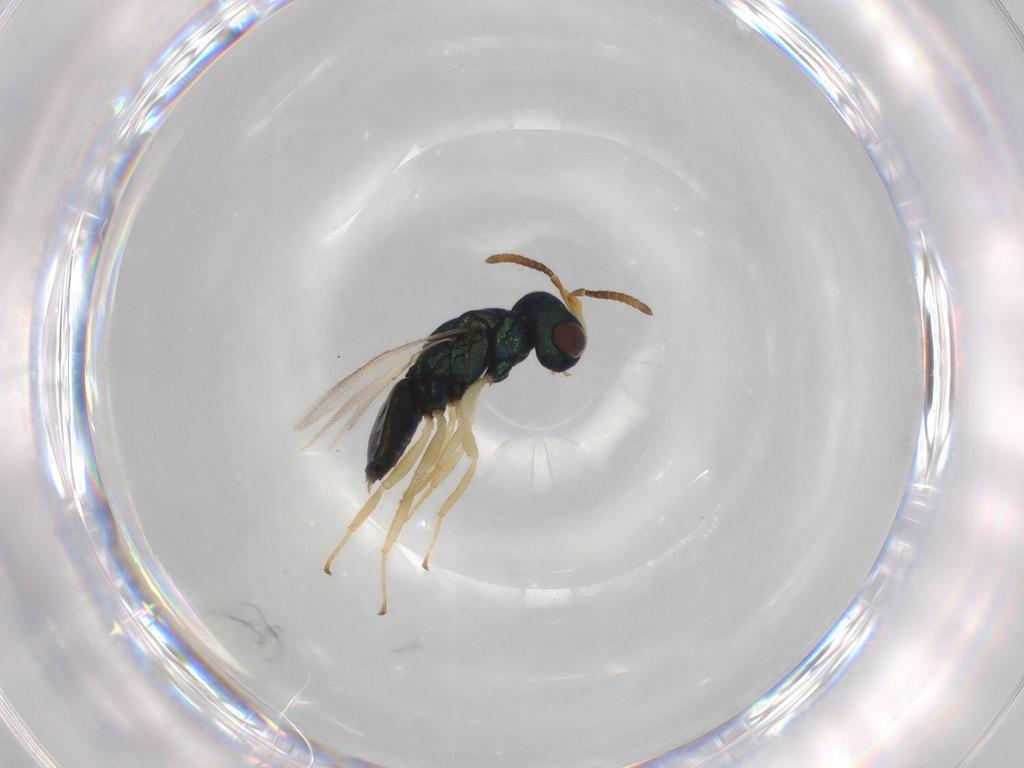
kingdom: Animalia
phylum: Arthropoda
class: Insecta
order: Hymenoptera
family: Pteromalidae
